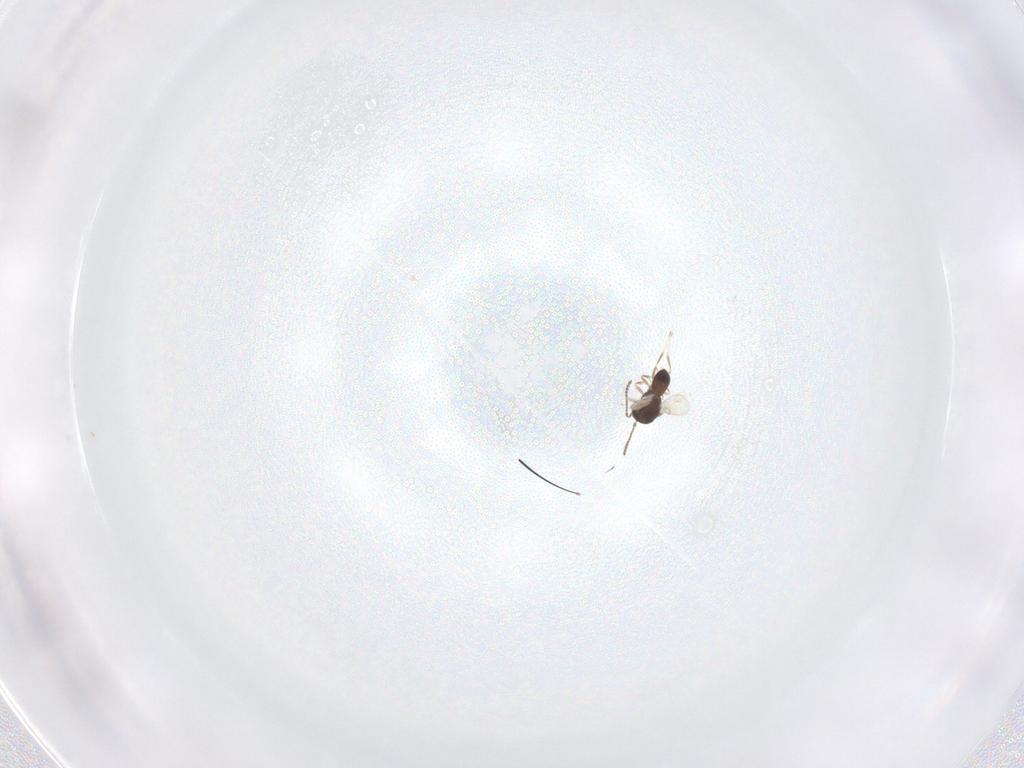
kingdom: Animalia
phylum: Arthropoda
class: Insecta
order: Hymenoptera
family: Scelionidae
